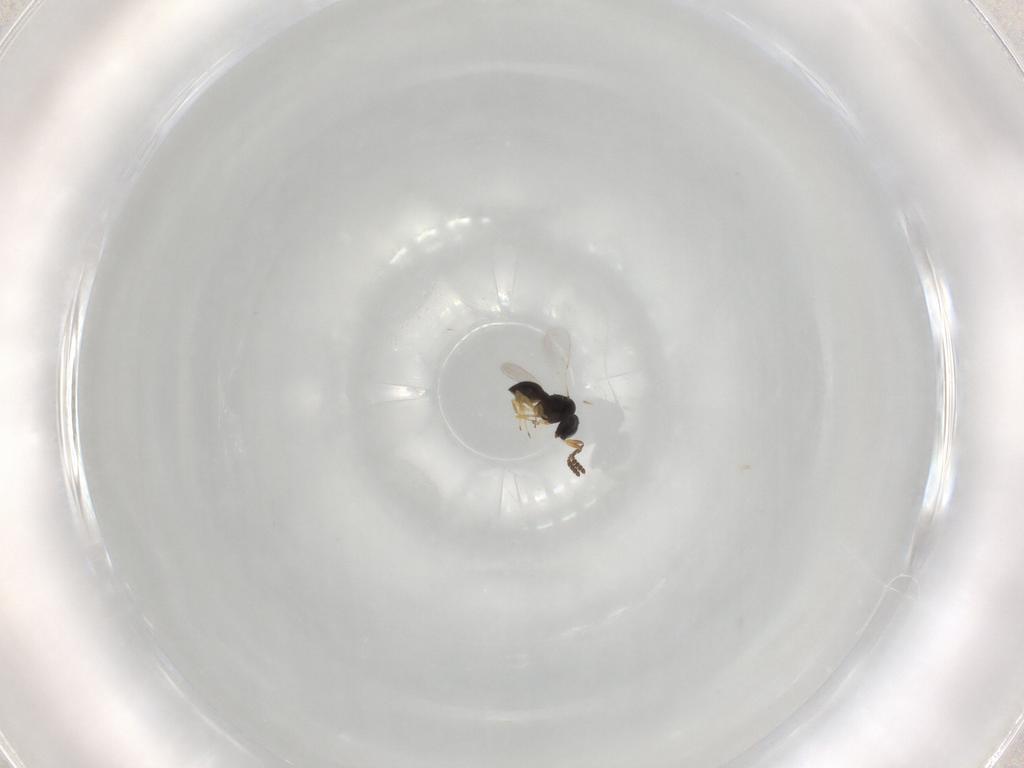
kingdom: Animalia
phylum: Arthropoda
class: Insecta
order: Hymenoptera
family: Scelionidae
